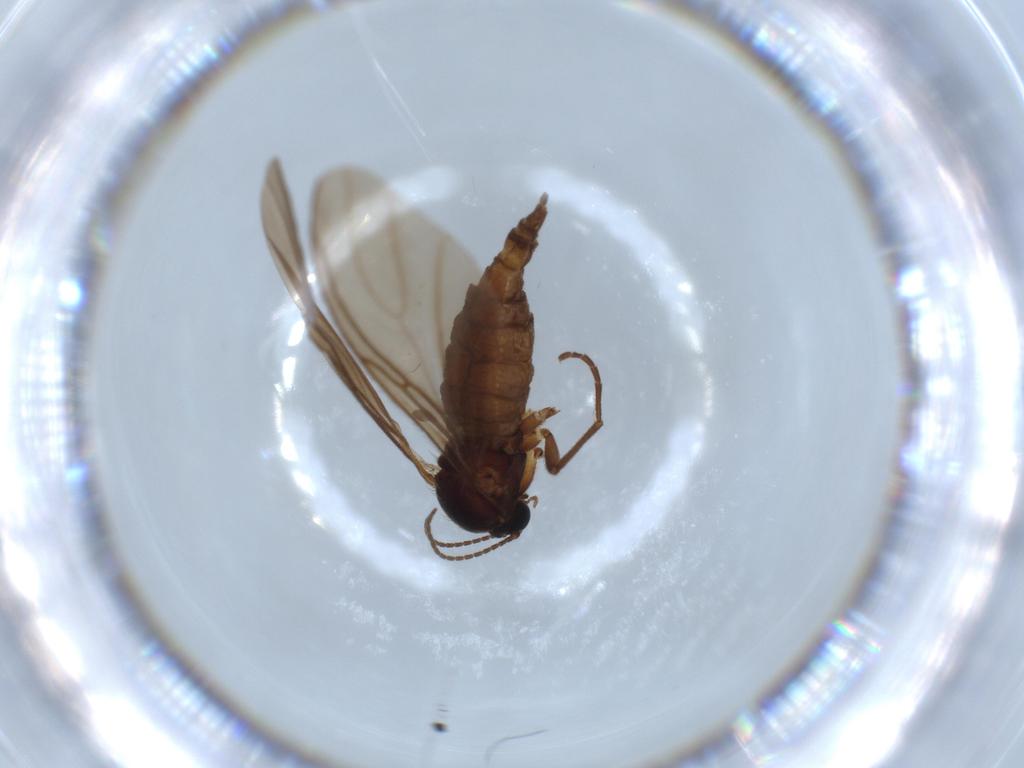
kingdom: Animalia
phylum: Arthropoda
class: Insecta
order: Diptera
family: Sciaridae
